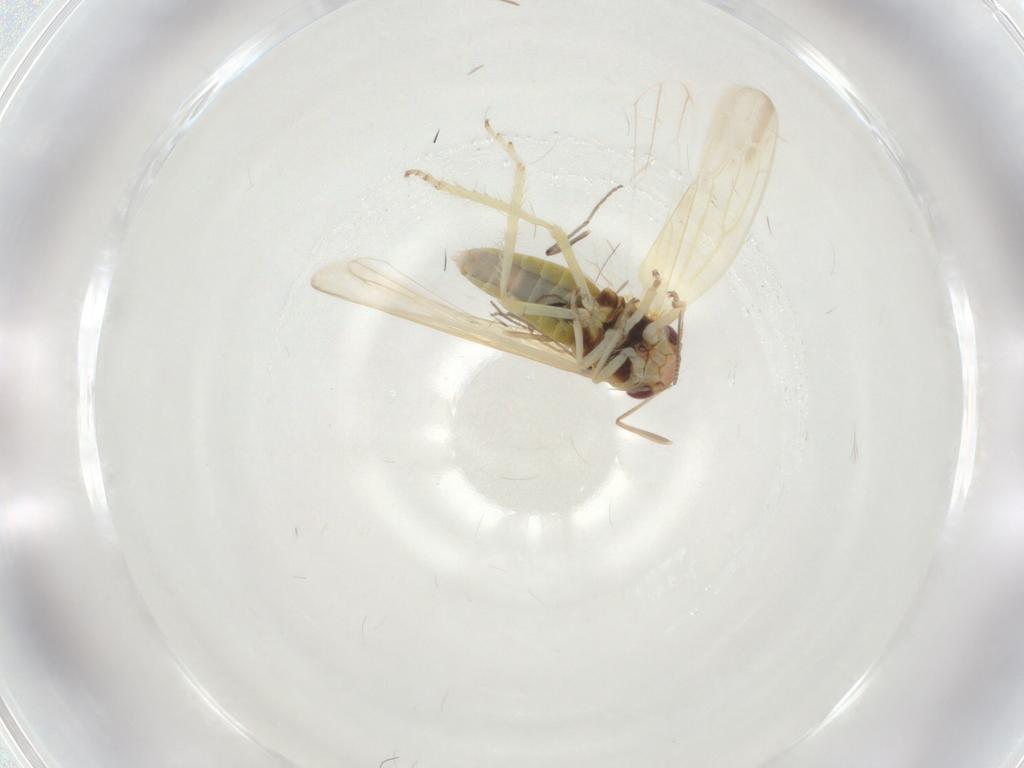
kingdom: Animalia
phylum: Arthropoda
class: Insecta
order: Hemiptera
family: Cicadellidae
